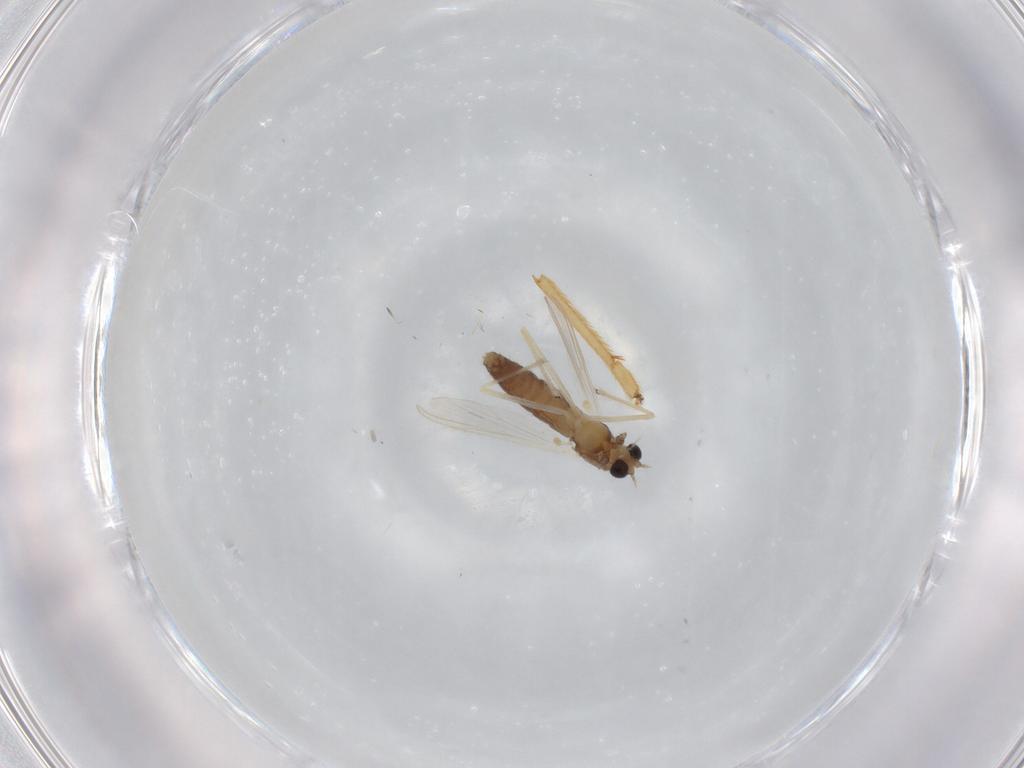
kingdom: Animalia
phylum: Arthropoda
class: Insecta
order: Diptera
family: Chironomidae
